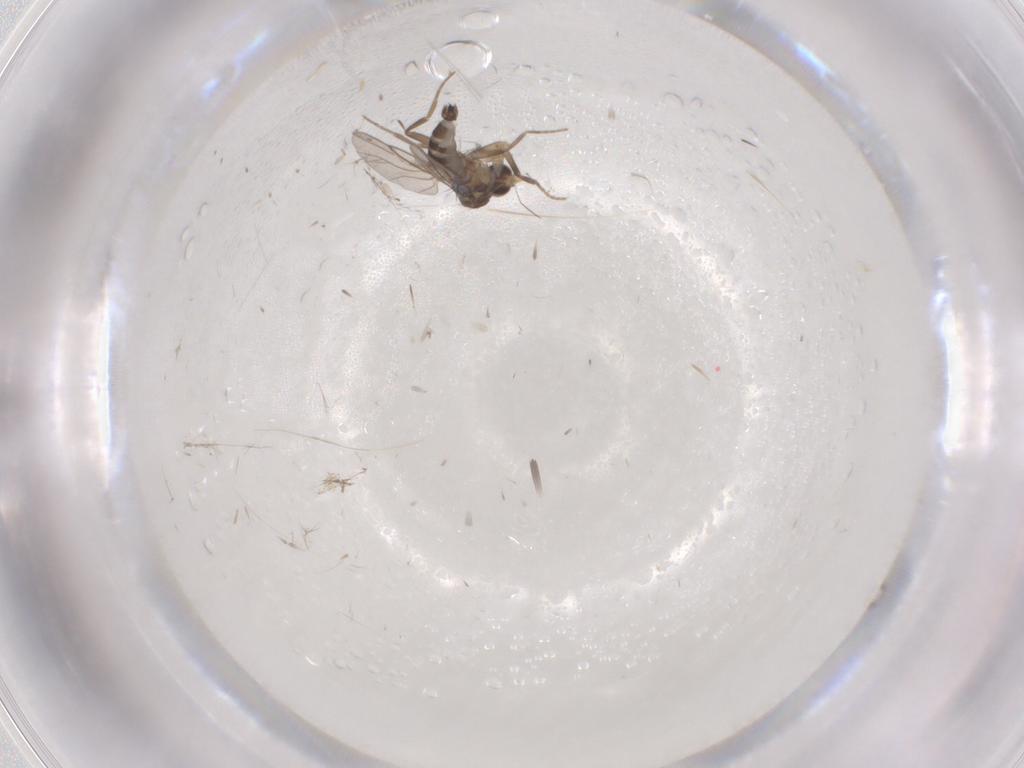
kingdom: Animalia
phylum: Arthropoda
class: Insecta
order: Diptera
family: Phoridae
